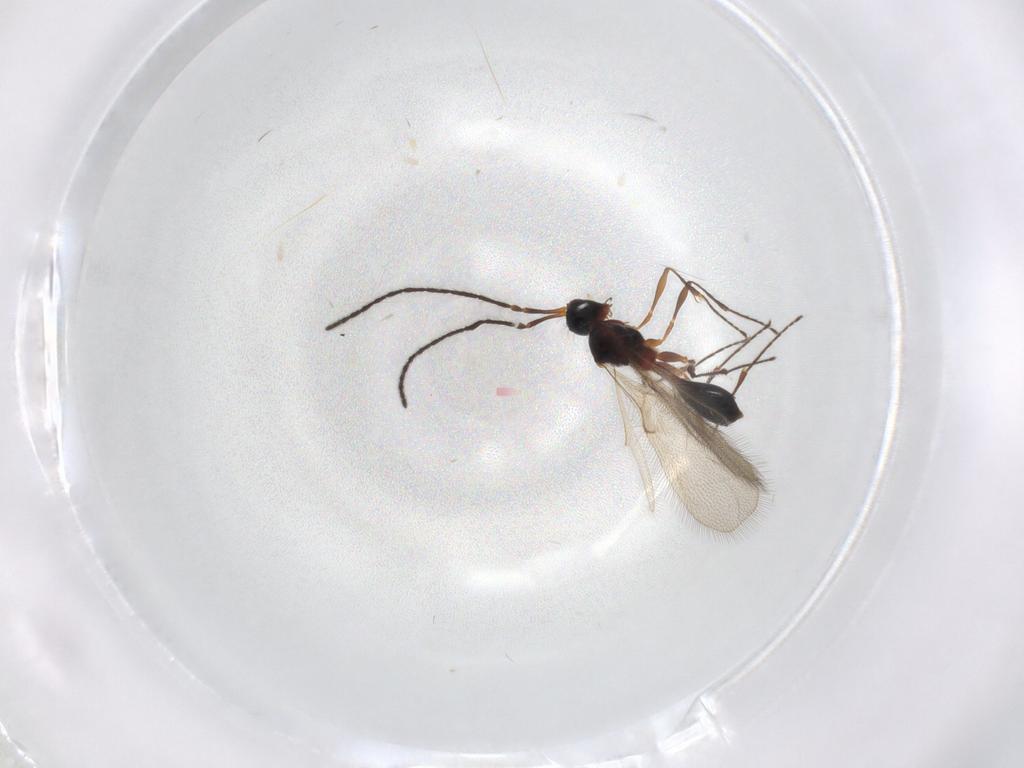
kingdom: Animalia
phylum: Arthropoda
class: Insecta
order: Hymenoptera
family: Diapriidae
